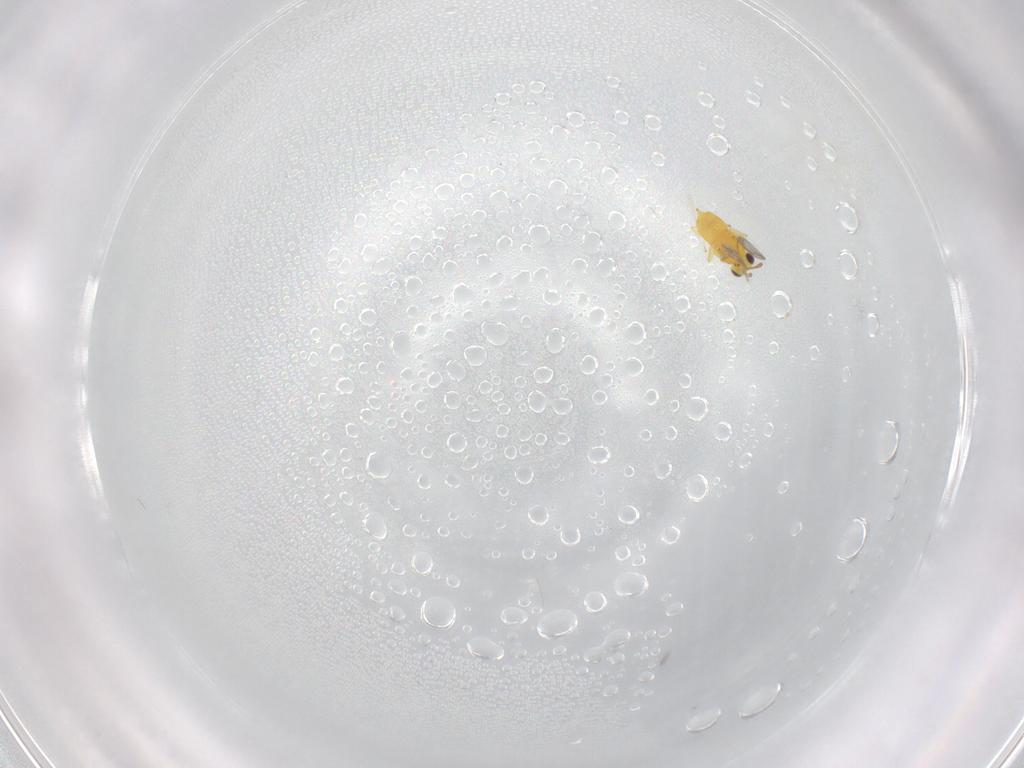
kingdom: Animalia
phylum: Arthropoda
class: Insecta
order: Hymenoptera
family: Aphelinidae
